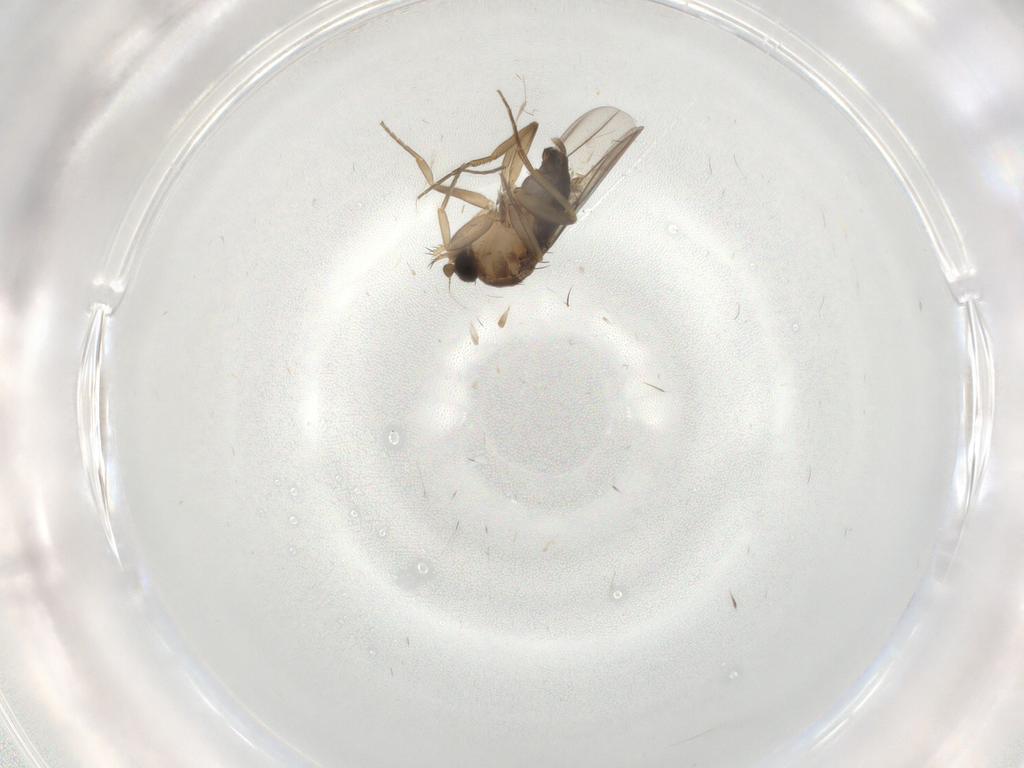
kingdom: Animalia
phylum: Arthropoda
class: Insecta
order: Diptera
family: Phoridae
